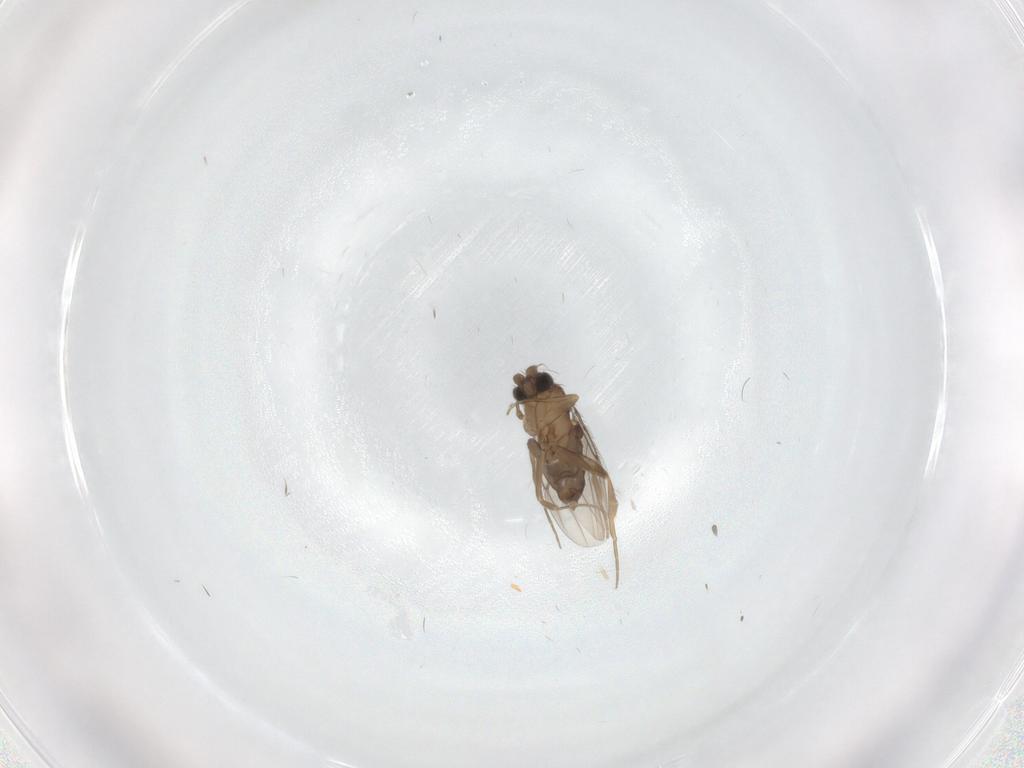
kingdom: Animalia
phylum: Arthropoda
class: Insecta
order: Diptera
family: Phoridae
